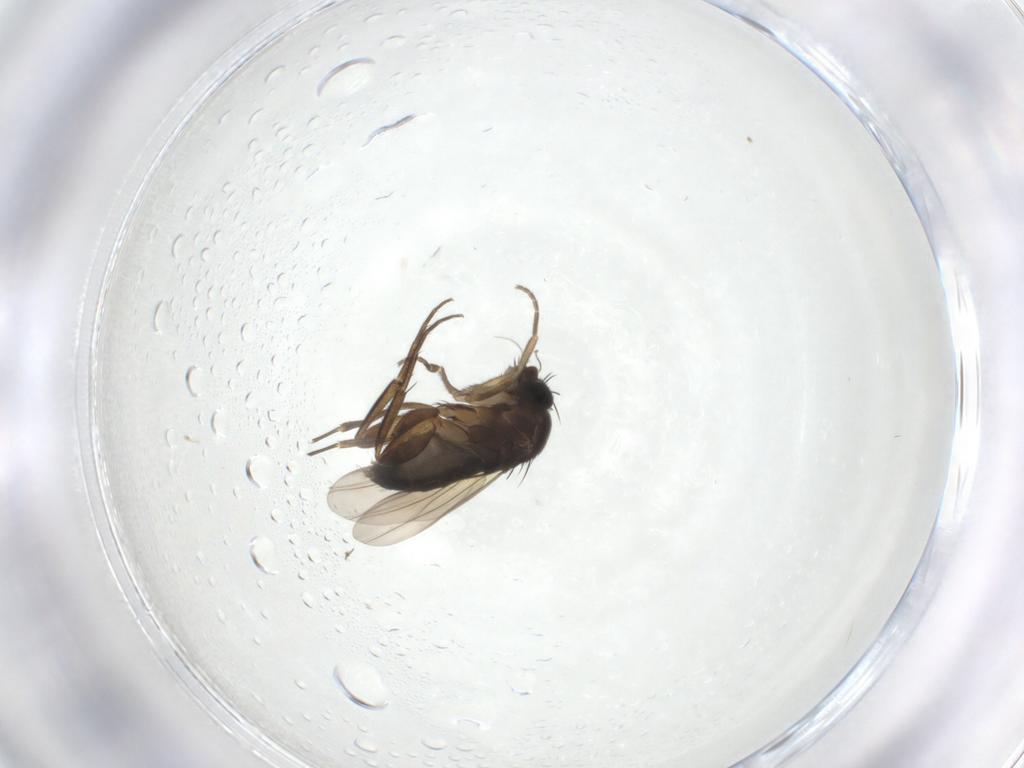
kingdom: Animalia
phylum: Arthropoda
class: Insecta
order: Diptera
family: Phoridae
